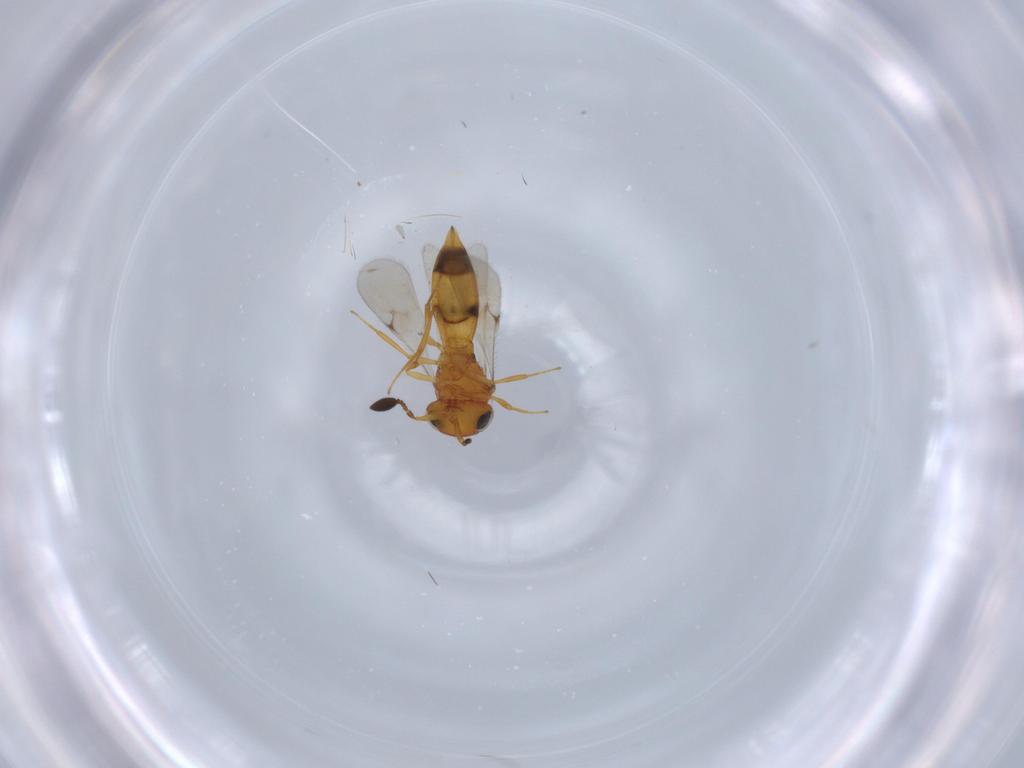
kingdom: Animalia
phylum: Arthropoda
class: Insecta
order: Hymenoptera
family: Scelionidae
